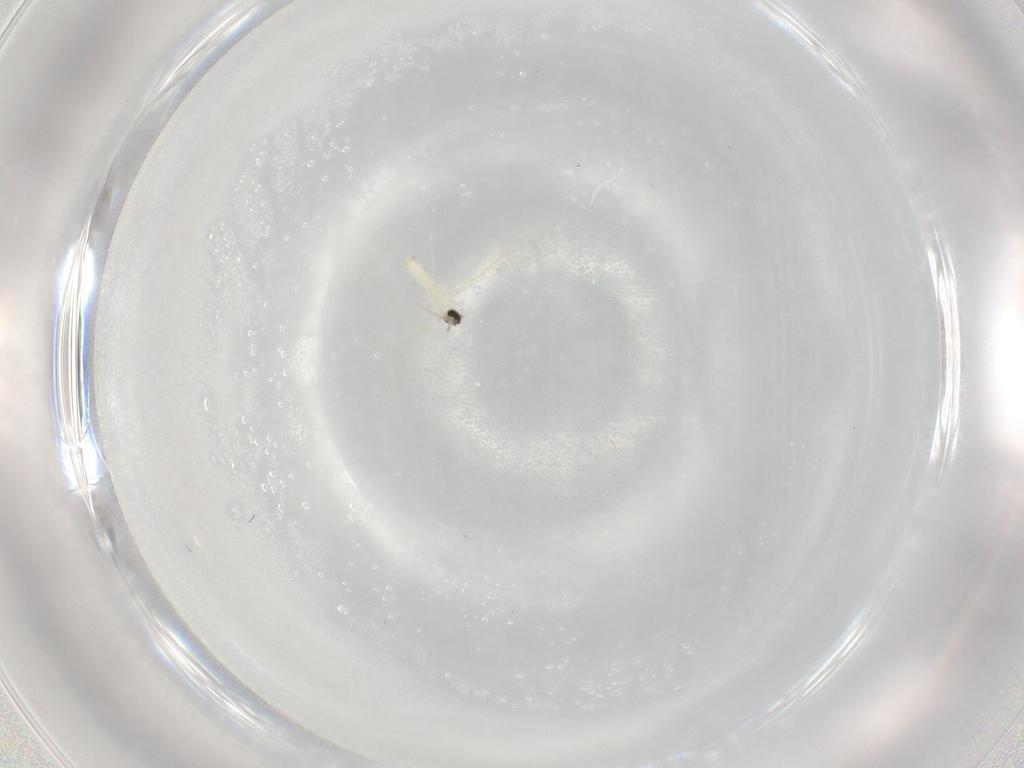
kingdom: Animalia
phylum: Arthropoda
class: Insecta
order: Diptera
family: Cecidomyiidae
